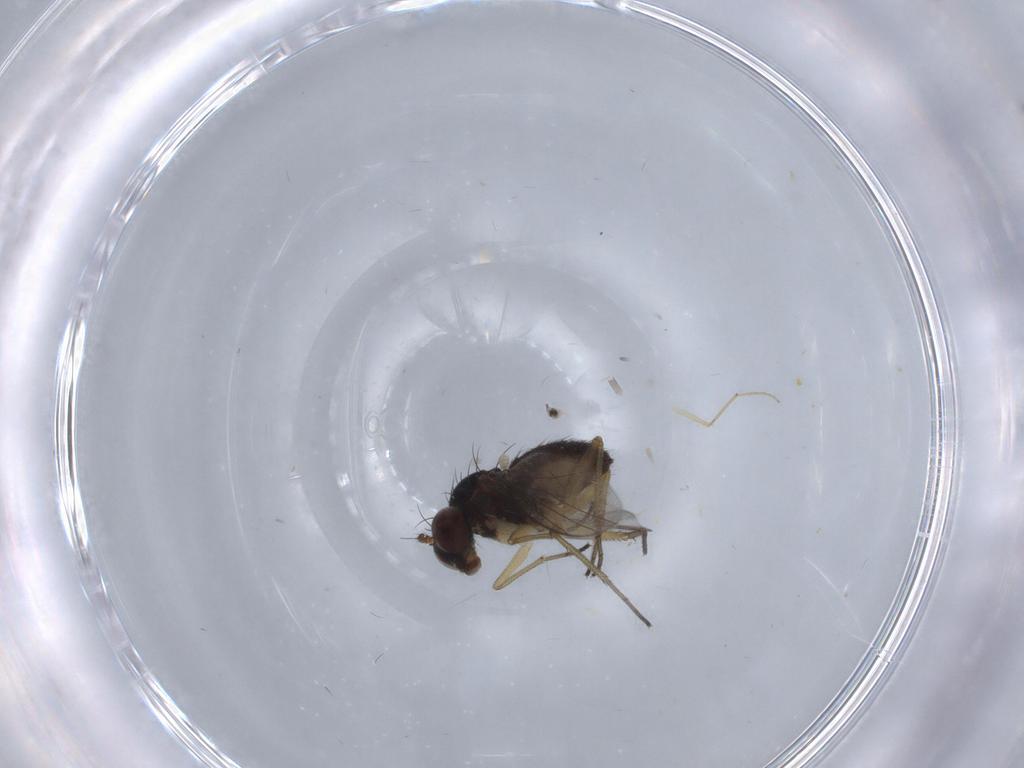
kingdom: Animalia
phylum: Arthropoda
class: Insecta
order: Diptera
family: Dolichopodidae
